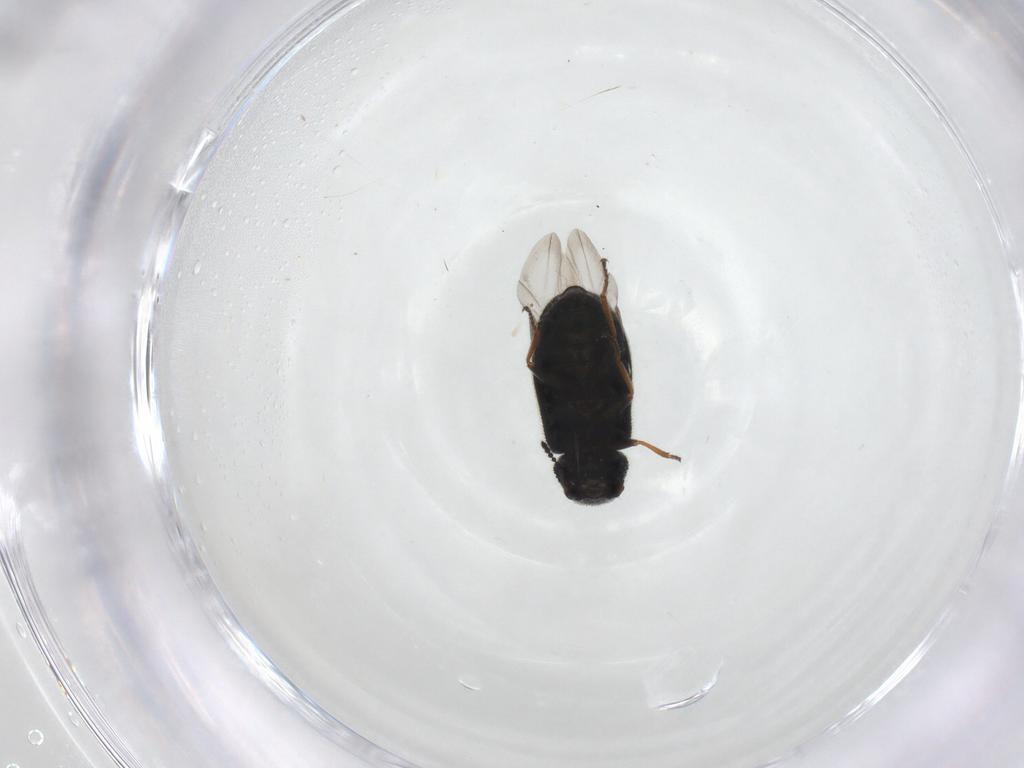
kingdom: Animalia
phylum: Arthropoda
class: Insecta
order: Coleoptera
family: Melyridae
